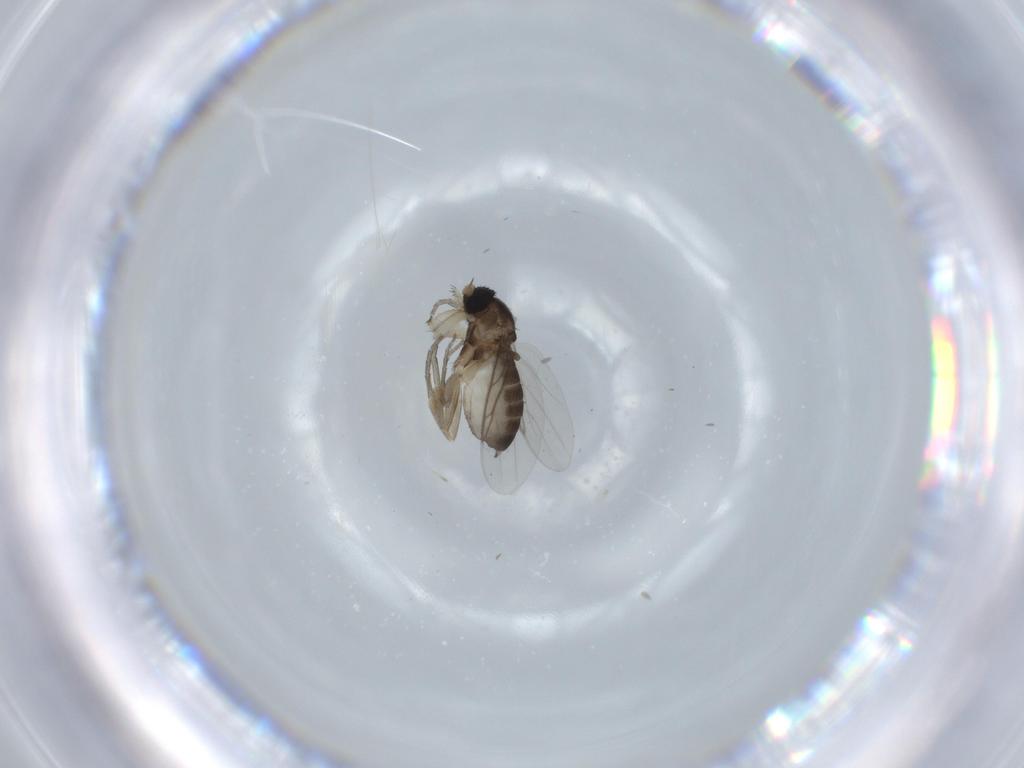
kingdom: Animalia
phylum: Arthropoda
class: Insecta
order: Diptera
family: Phoridae
